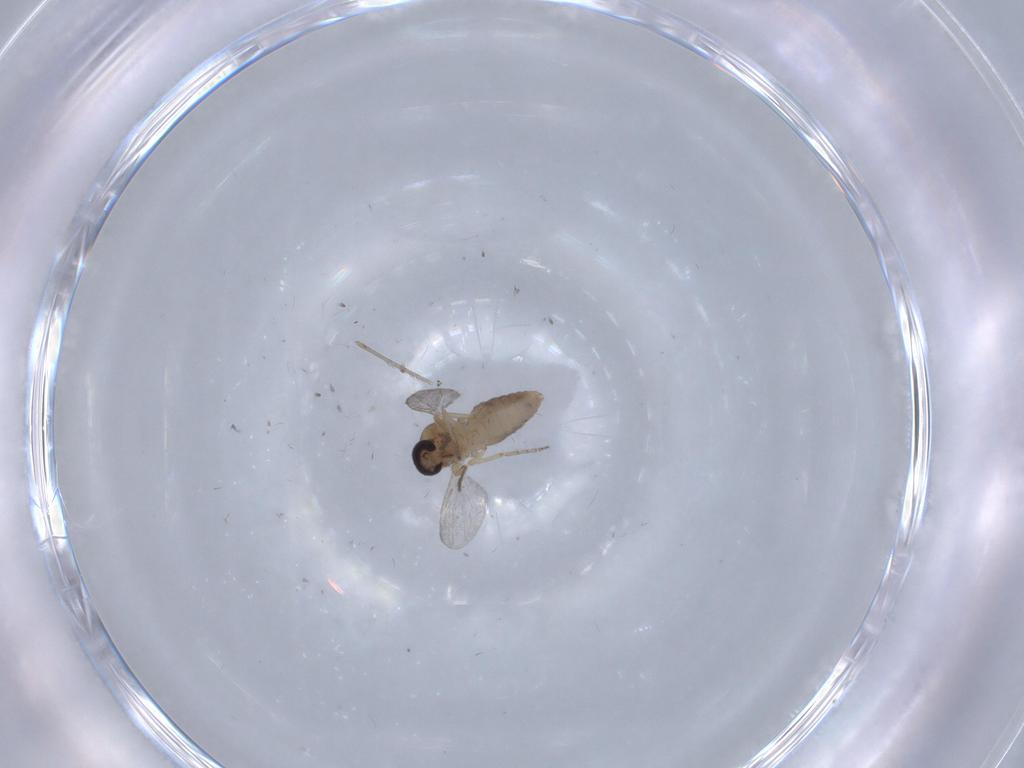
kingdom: Animalia
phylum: Arthropoda
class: Insecta
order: Diptera
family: Ceratopogonidae
